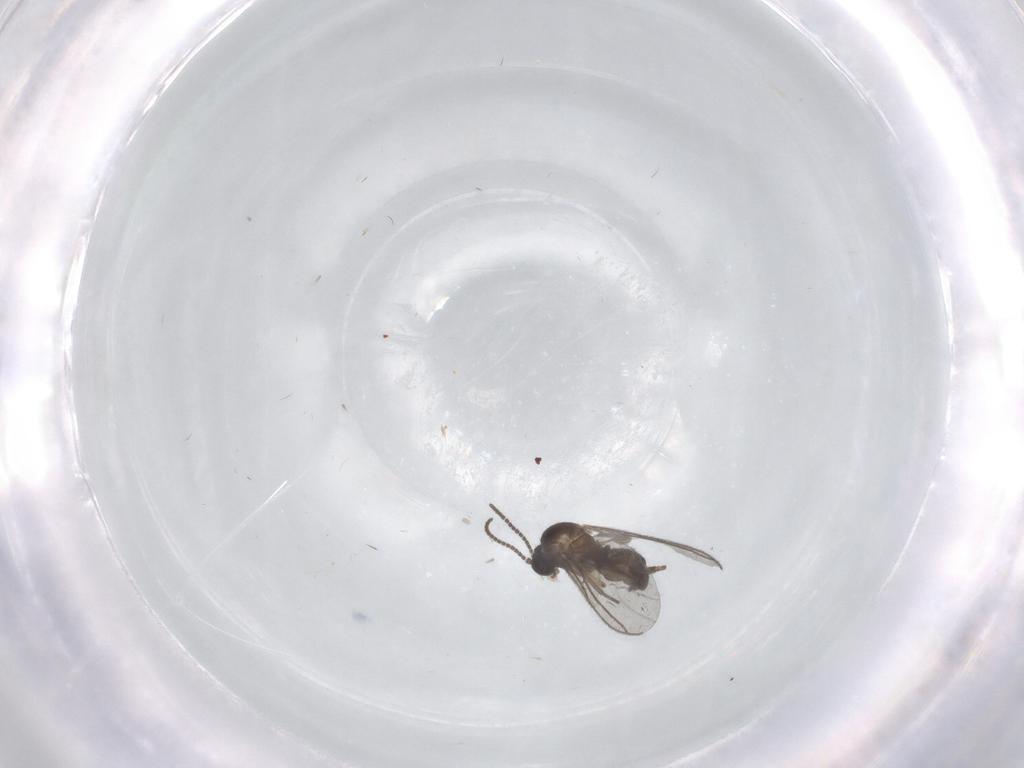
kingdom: Animalia
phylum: Arthropoda
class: Insecta
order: Diptera
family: Sciaridae
